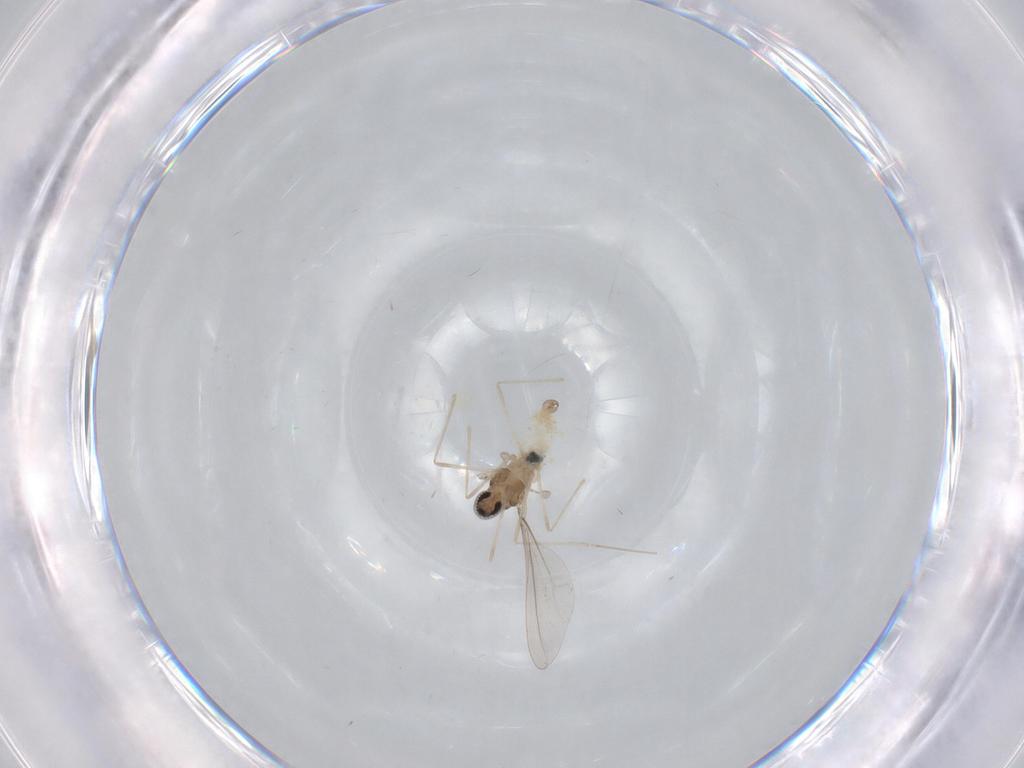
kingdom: Animalia
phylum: Arthropoda
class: Insecta
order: Diptera
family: Cecidomyiidae
